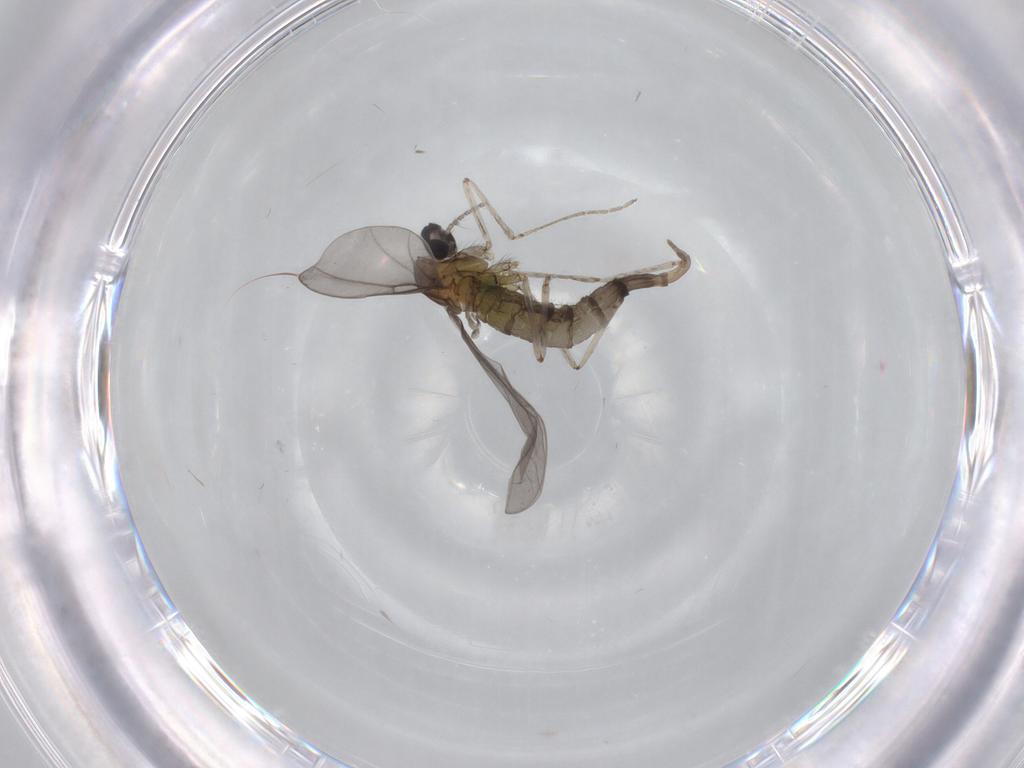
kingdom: Animalia
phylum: Arthropoda
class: Insecta
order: Diptera
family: Cecidomyiidae
